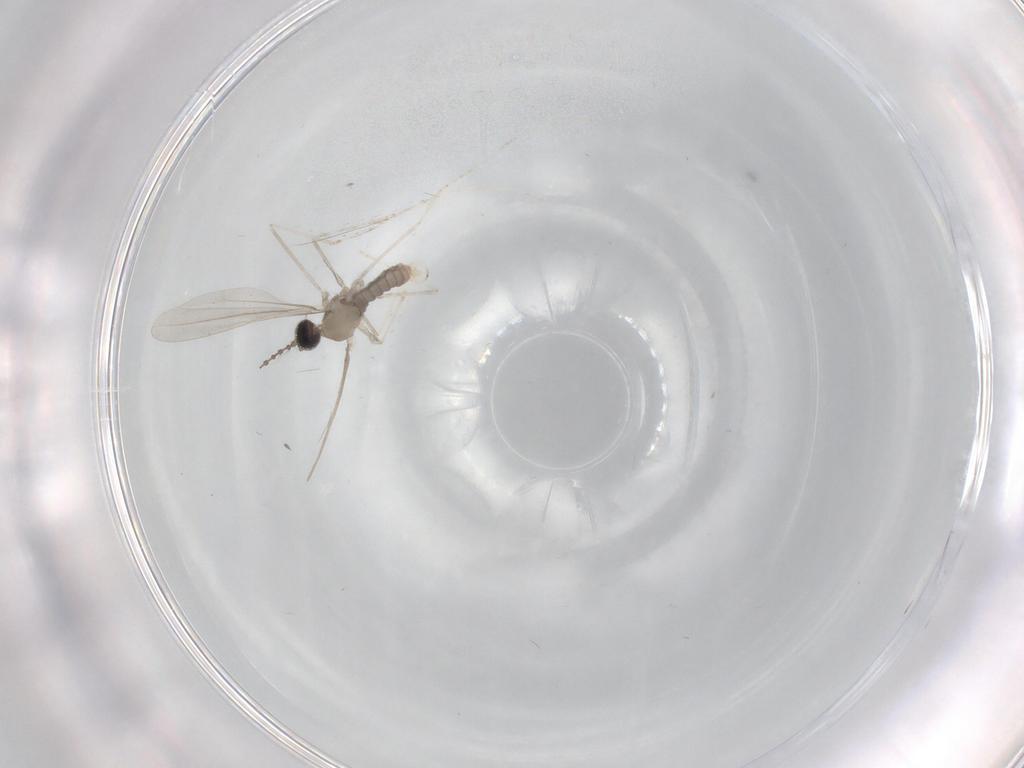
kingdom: Animalia
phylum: Arthropoda
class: Insecta
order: Diptera
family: Cecidomyiidae
